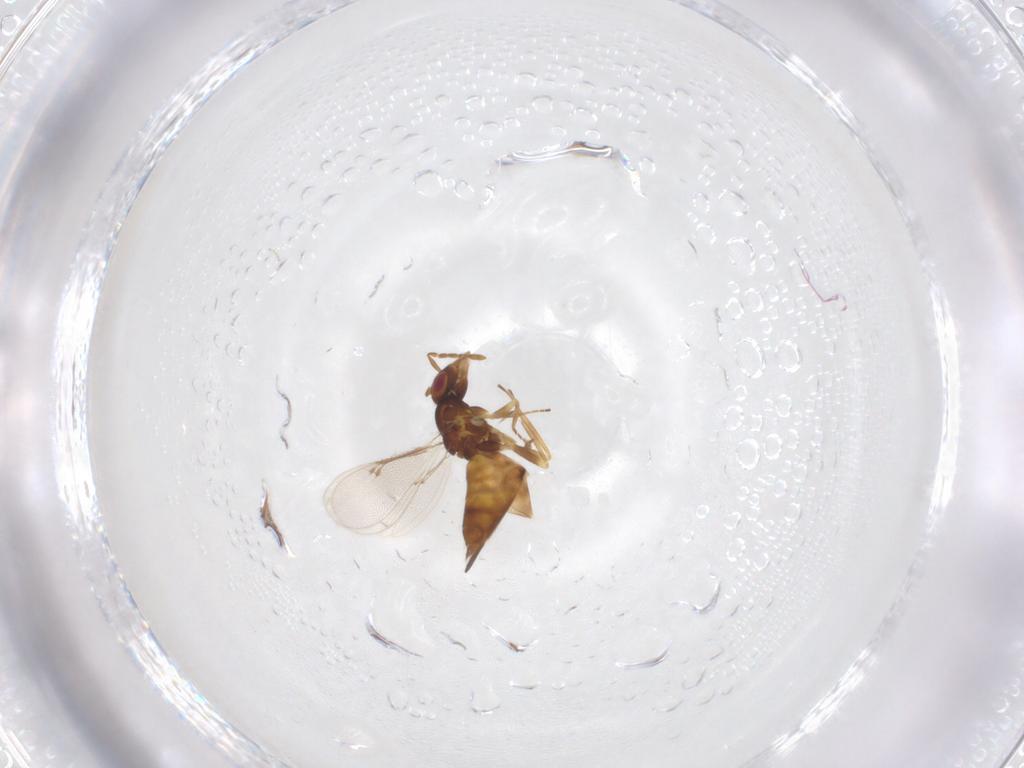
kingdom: Animalia
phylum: Arthropoda
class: Insecta
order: Hymenoptera
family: Eulophidae
